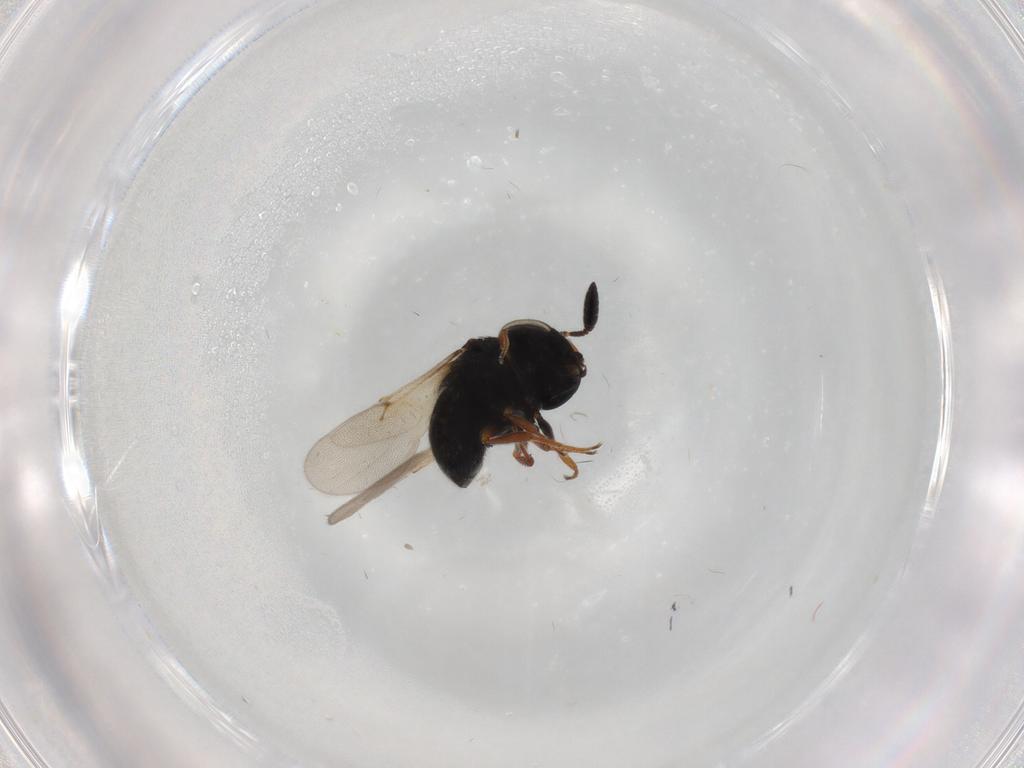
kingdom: Animalia
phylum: Arthropoda
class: Insecta
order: Hymenoptera
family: Scelionidae
